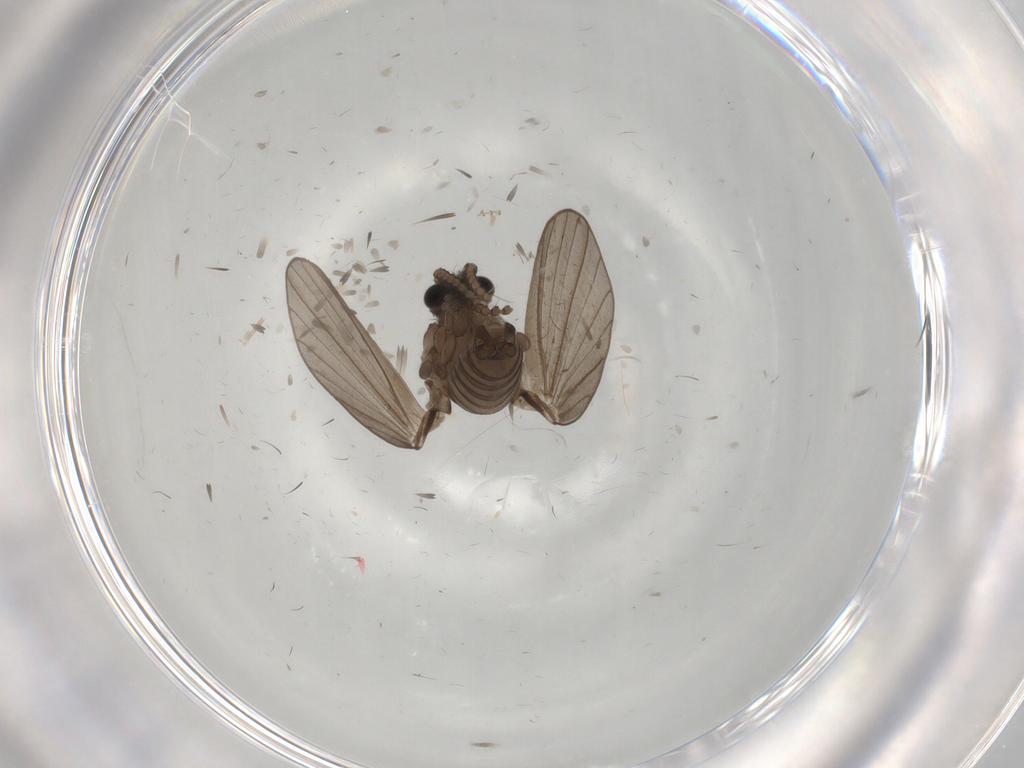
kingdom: Animalia
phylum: Arthropoda
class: Insecta
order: Diptera
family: Psychodidae
